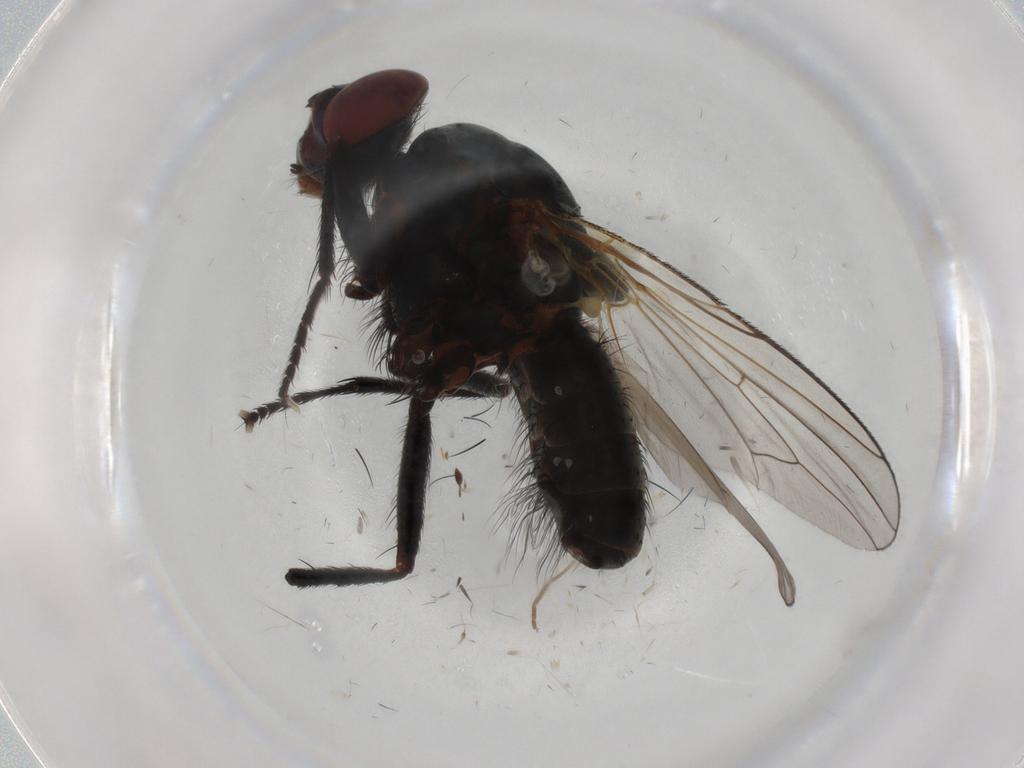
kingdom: Animalia
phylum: Arthropoda
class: Insecta
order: Diptera
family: Anthomyiidae
